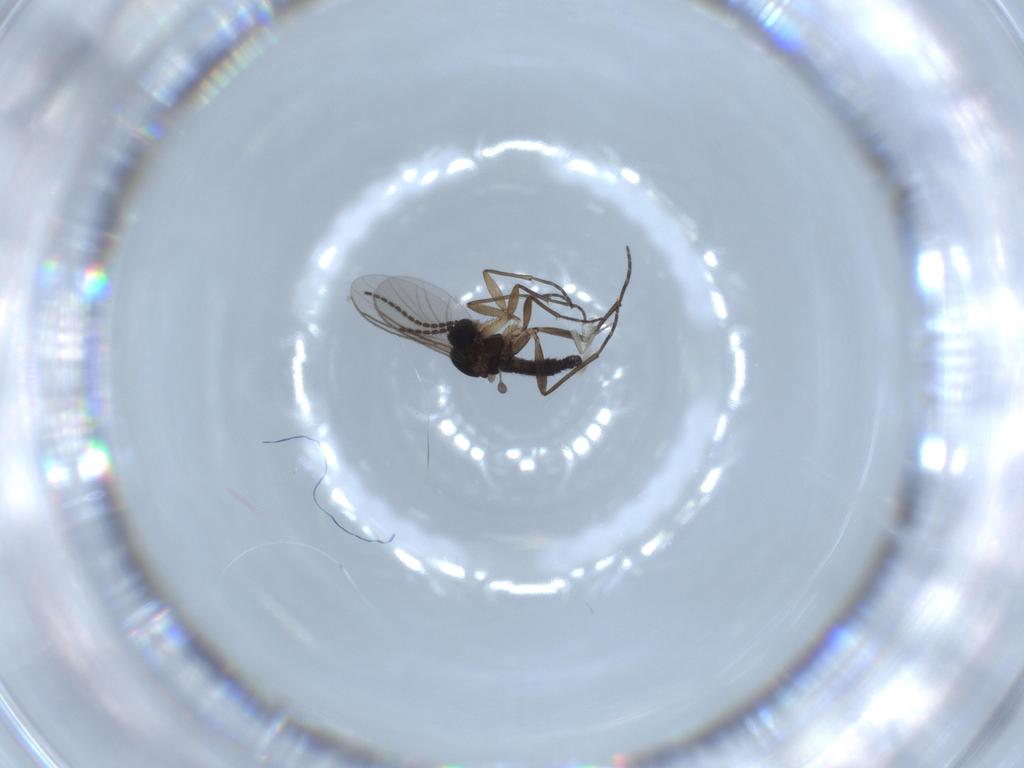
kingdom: Animalia
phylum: Arthropoda
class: Insecta
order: Diptera
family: Sciaridae
